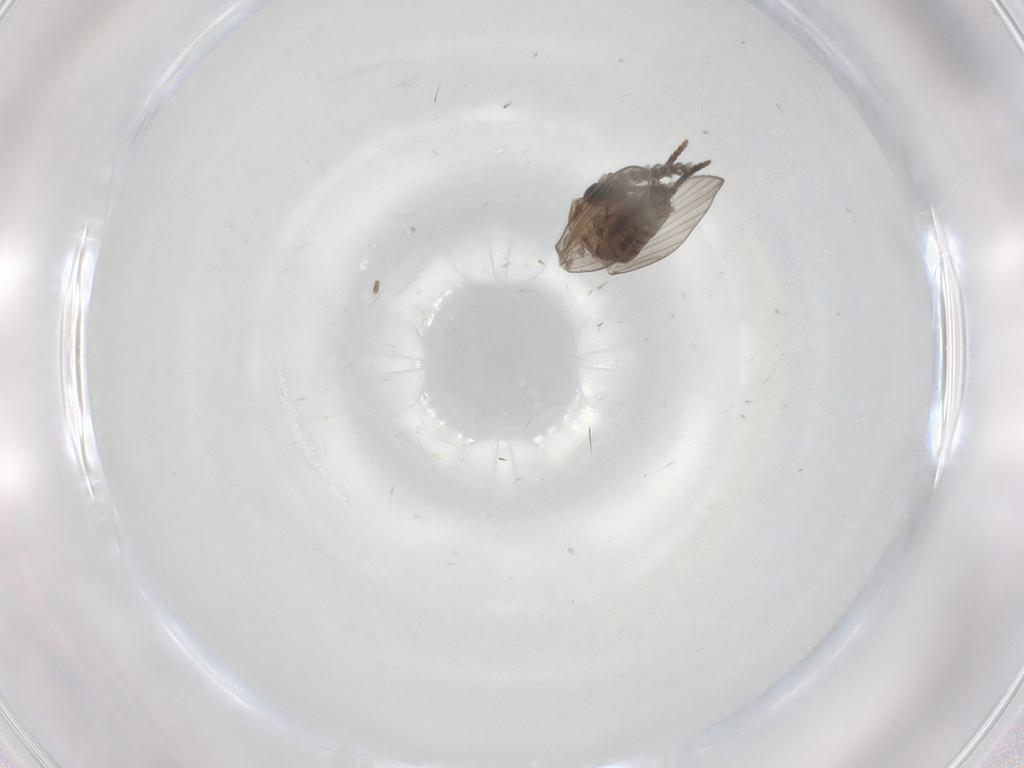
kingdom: Animalia
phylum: Arthropoda
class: Insecta
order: Diptera
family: Psychodidae
